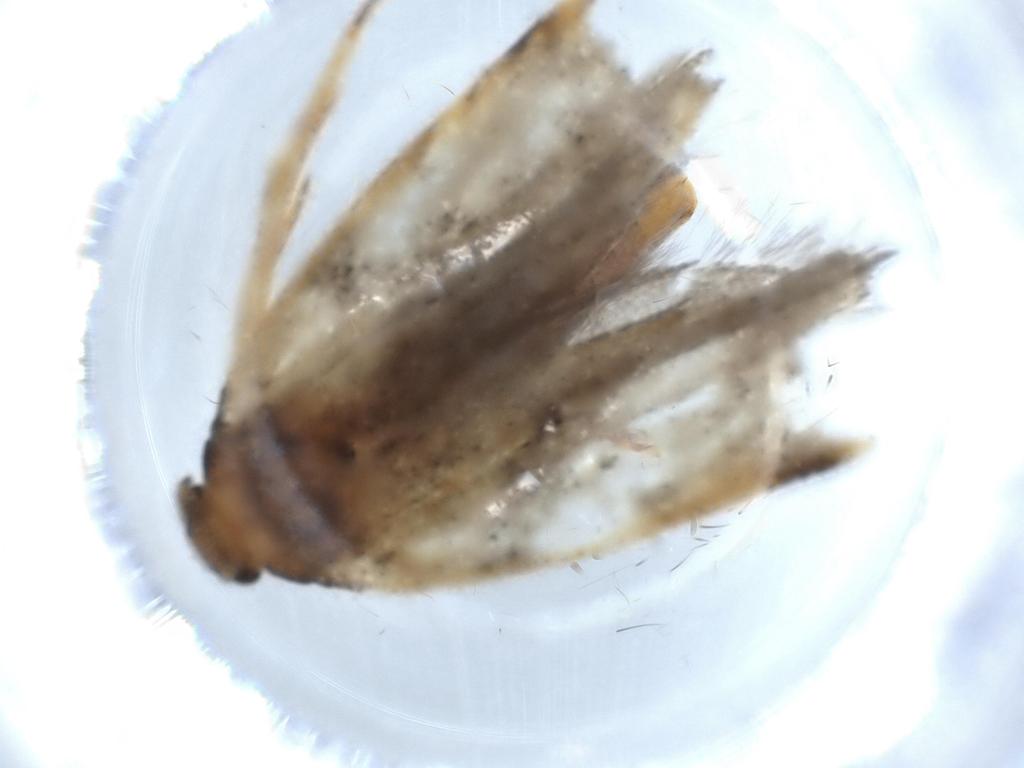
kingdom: Animalia
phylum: Arthropoda
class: Insecta
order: Lepidoptera
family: Gelechiidae
